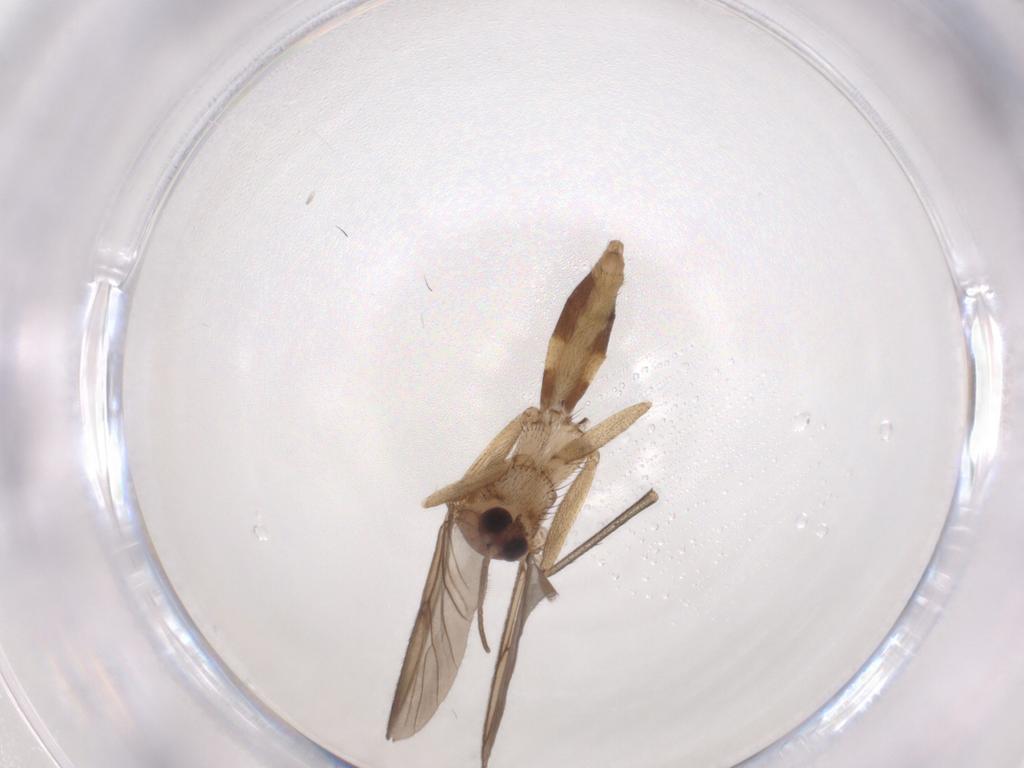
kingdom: Animalia
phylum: Arthropoda
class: Insecta
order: Diptera
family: Mycetophilidae
